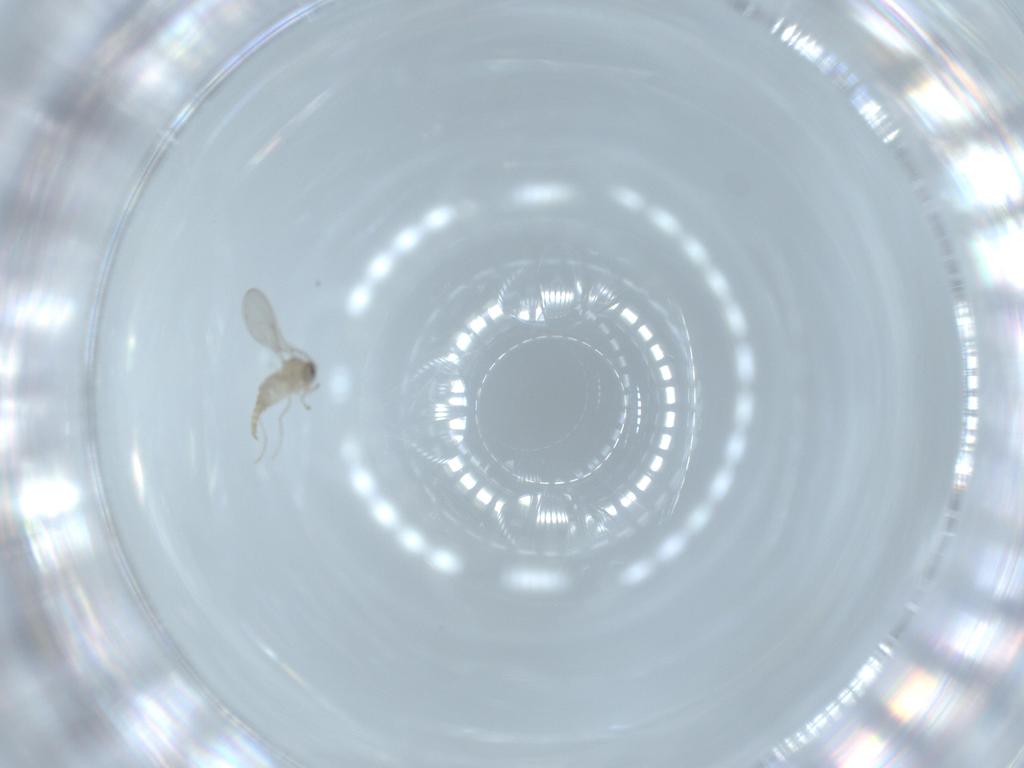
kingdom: Animalia
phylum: Arthropoda
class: Insecta
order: Diptera
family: Cecidomyiidae
